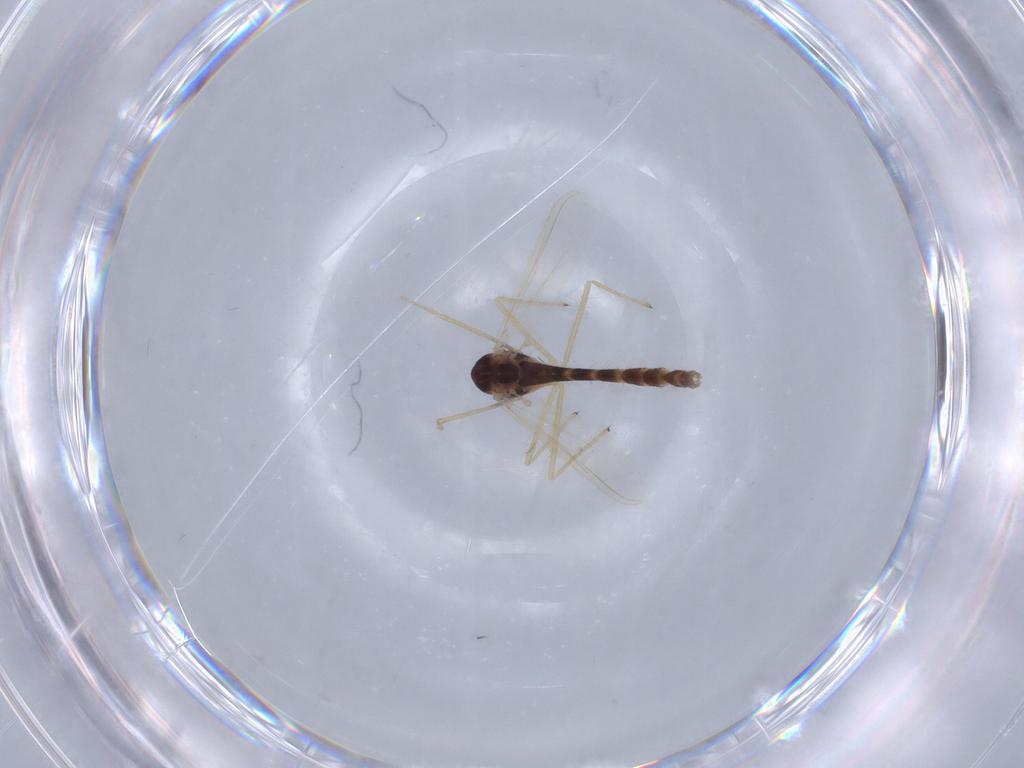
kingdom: Animalia
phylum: Arthropoda
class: Insecta
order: Diptera
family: Chironomidae
